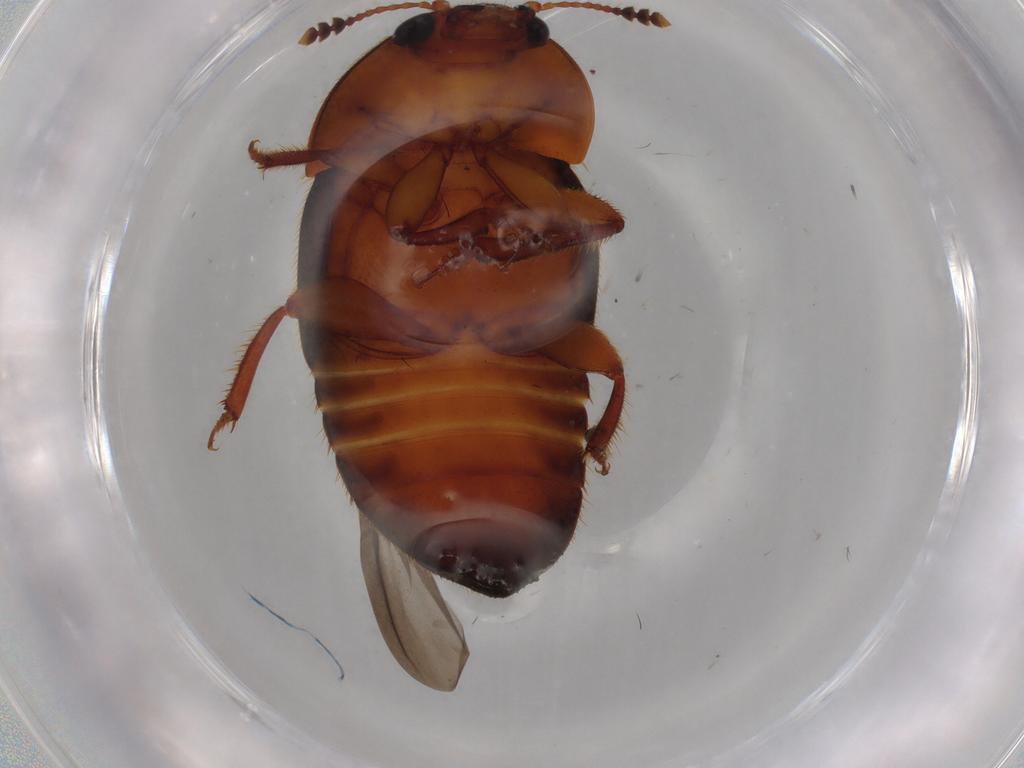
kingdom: Animalia
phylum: Arthropoda
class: Insecta
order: Coleoptera
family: Nitidulidae
